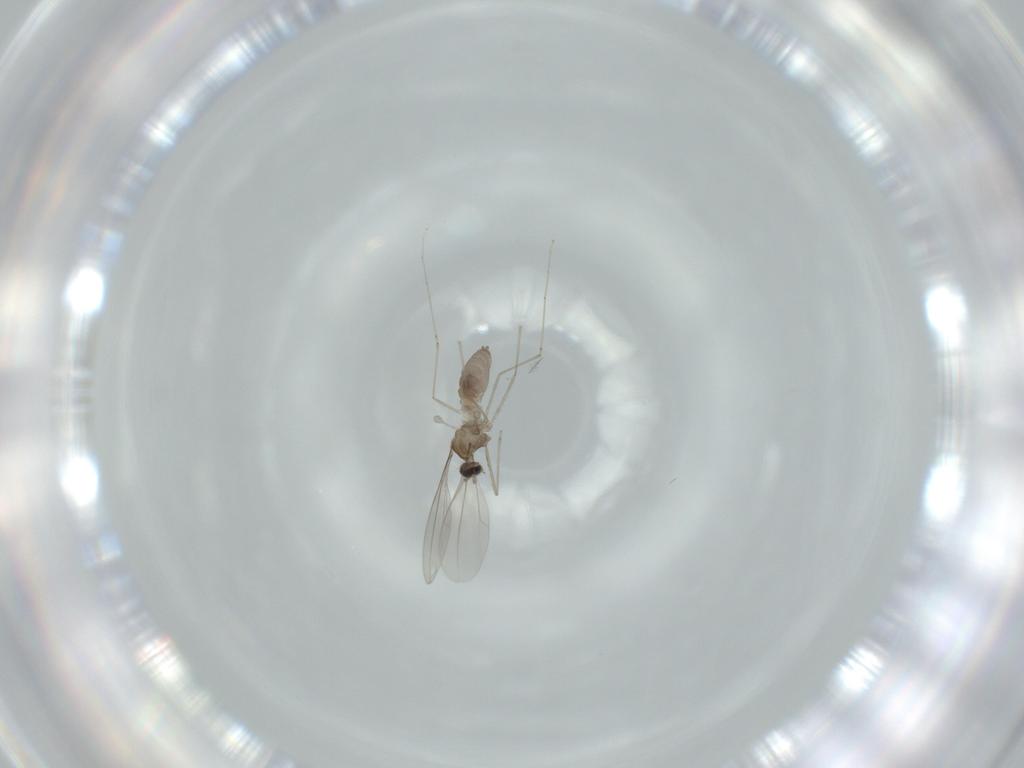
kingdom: Animalia
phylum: Arthropoda
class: Insecta
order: Diptera
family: Cecidomyiidae
